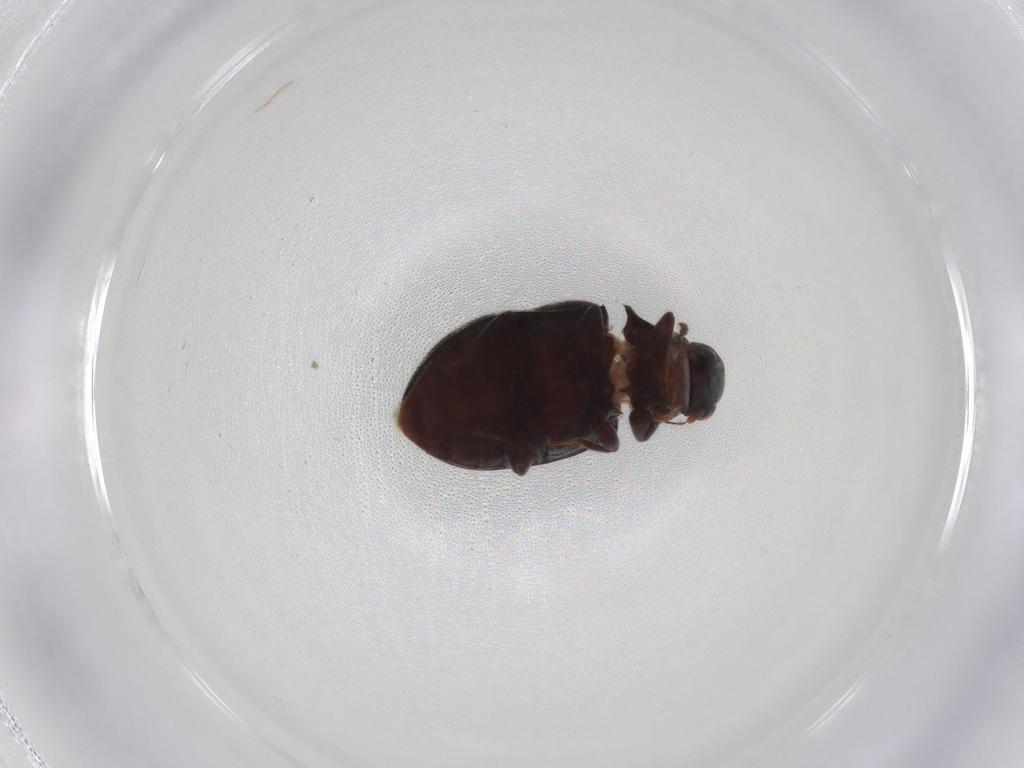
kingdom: Animalia
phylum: Arthropoda
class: Insecta
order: Coleoptera
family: Limnichidae
